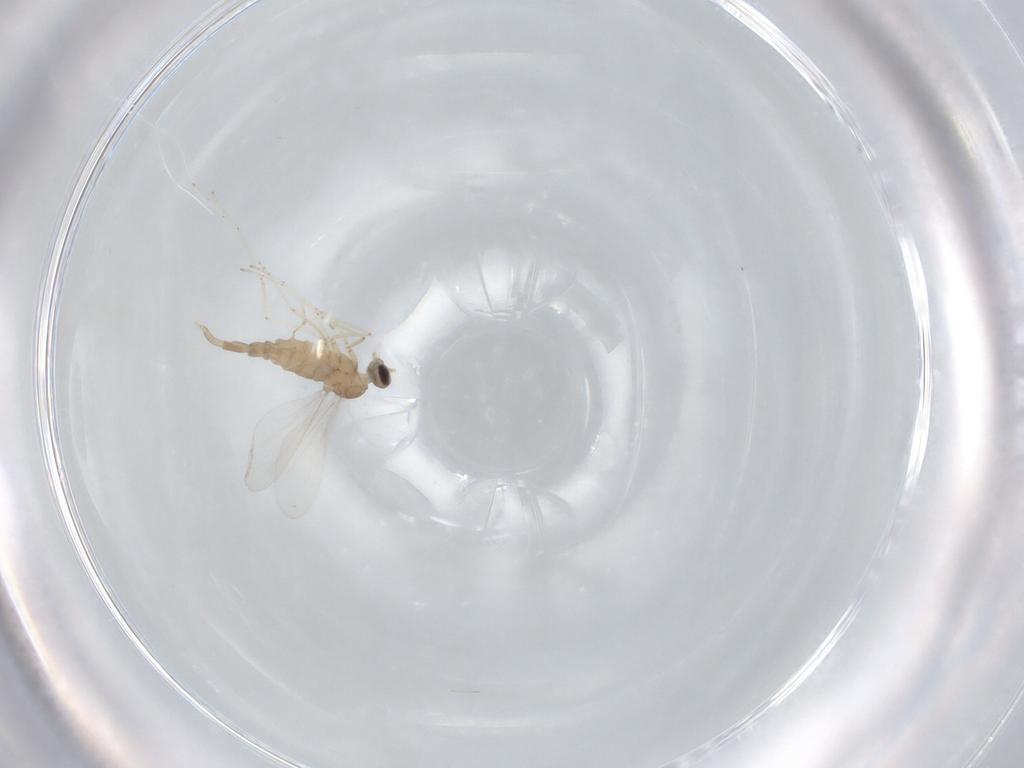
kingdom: Animalia
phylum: Arthropoda
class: Insecta
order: Diptera
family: Cecidomyiidae
